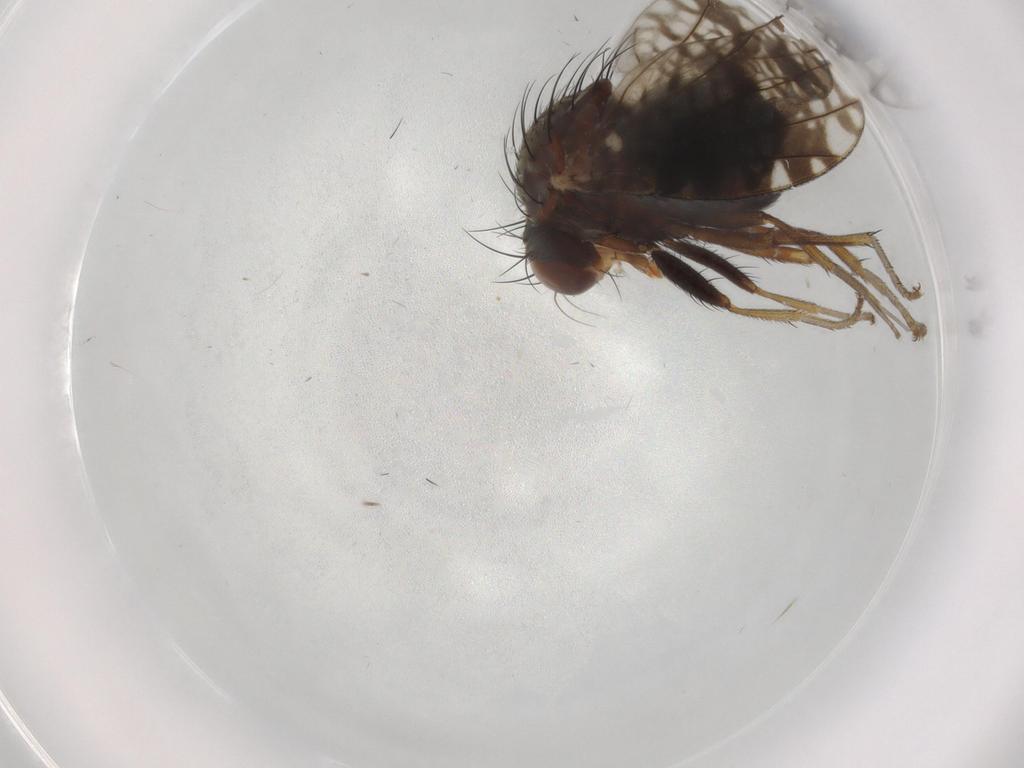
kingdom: Animalia
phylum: Arthropoda
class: Insecta
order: Diptera
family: Tephritidae
